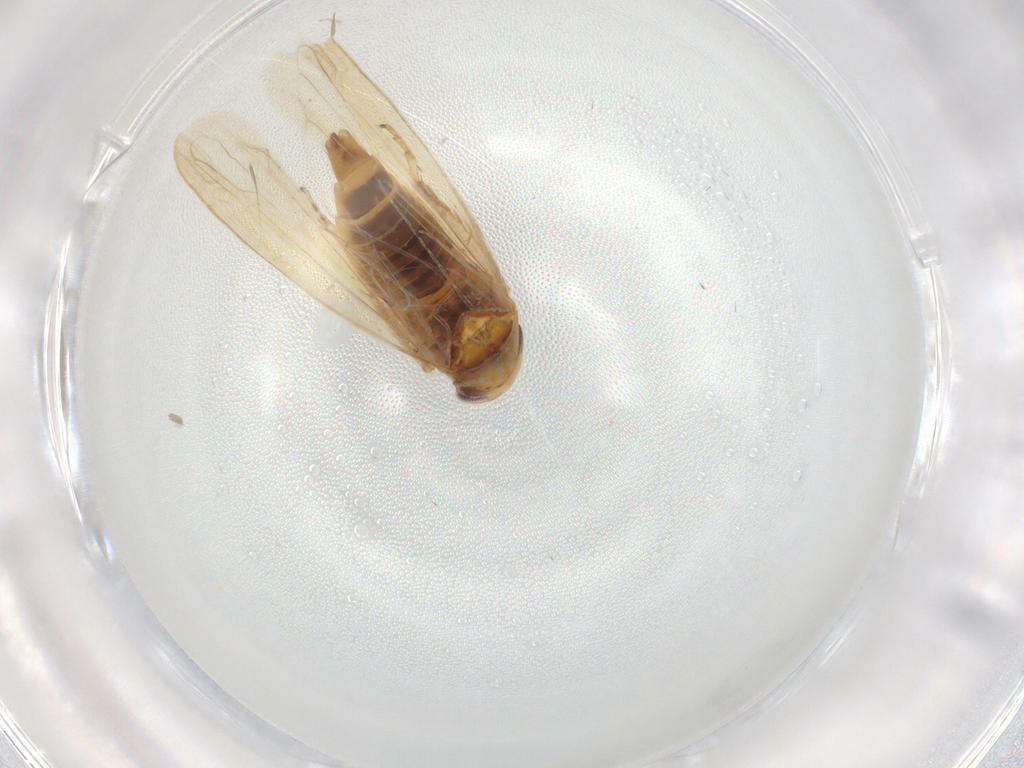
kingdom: Animalia
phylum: Arthropoda
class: Insecta
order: Hemiptera
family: Cicadellidae
